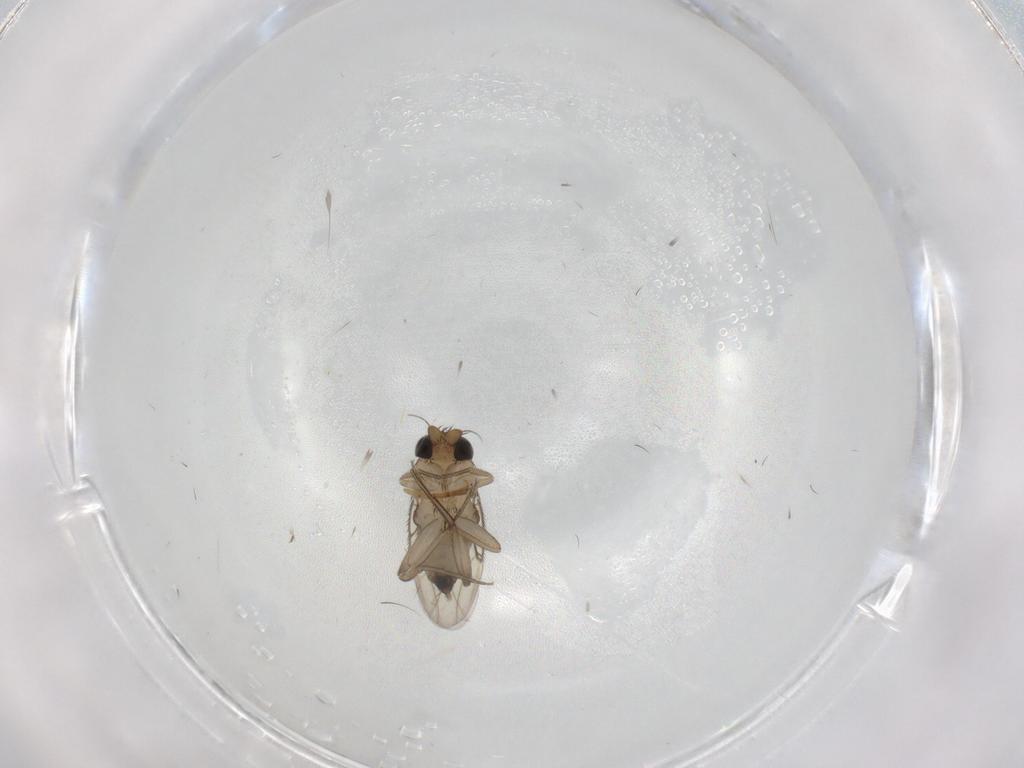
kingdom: Animalia
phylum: Arthropoda
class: Insecta
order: Diptera
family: Phoridae
